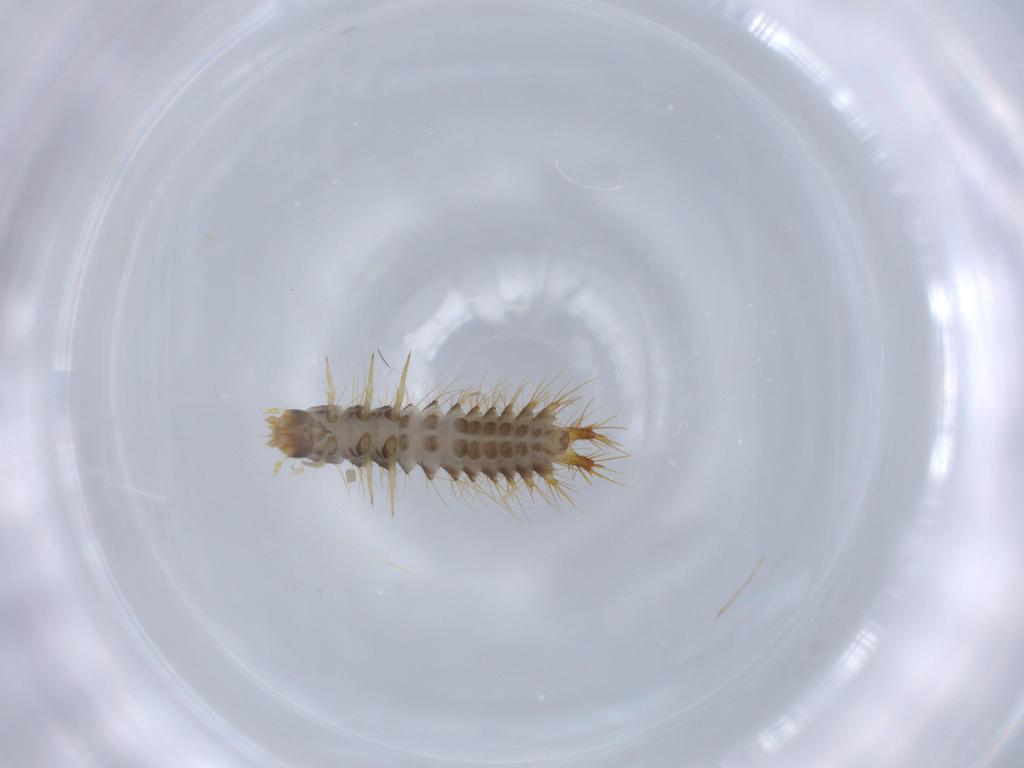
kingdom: Animalia
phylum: Arthropoda
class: Insecta
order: Coleoptera
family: Drilidae
